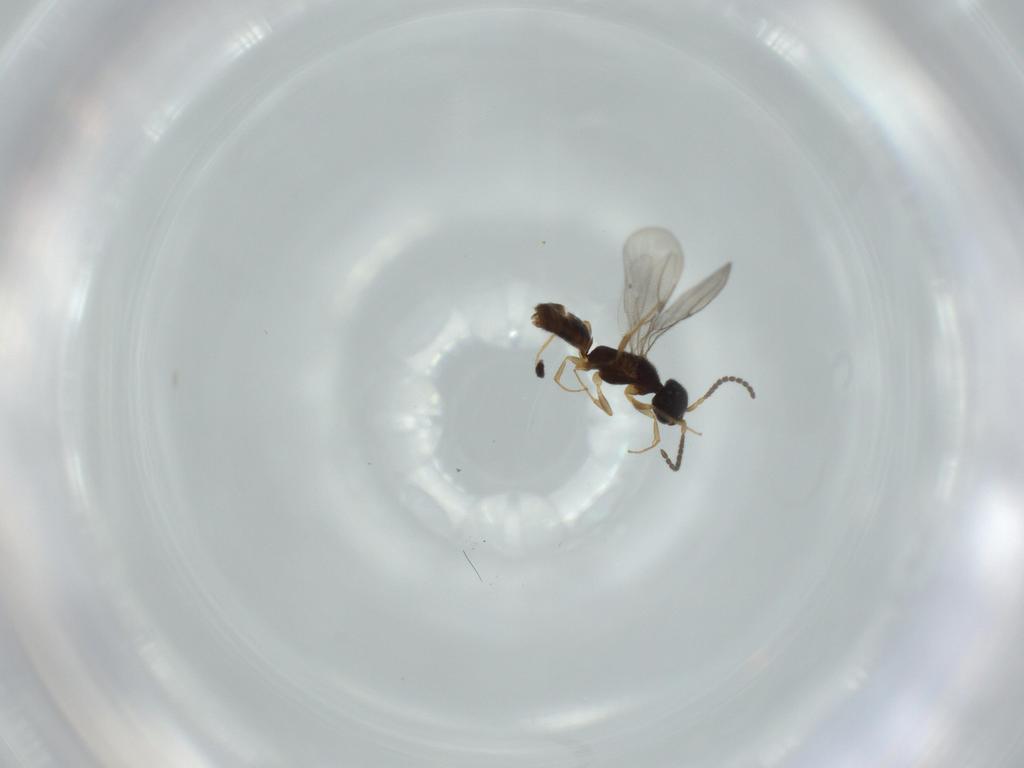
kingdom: Animalia
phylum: Arthropoda
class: Insecta
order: Hymenoptera
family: Bethylidae
